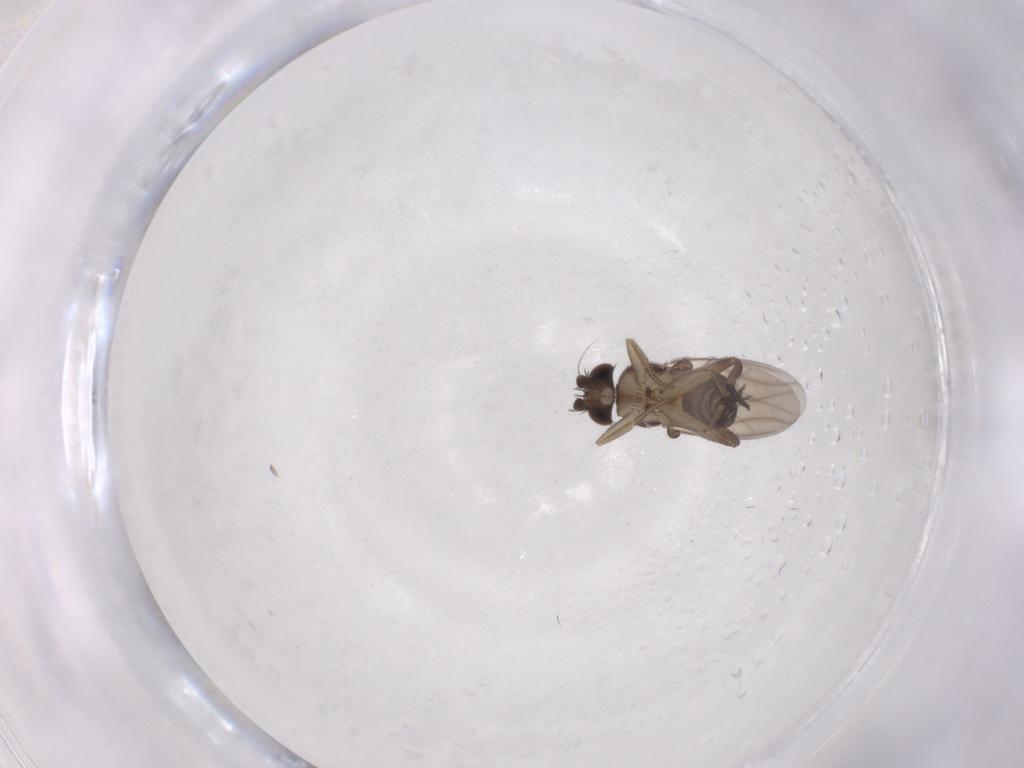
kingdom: Animalia
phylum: Arthropoda
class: Insecta
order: Diptera
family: Phoridae
